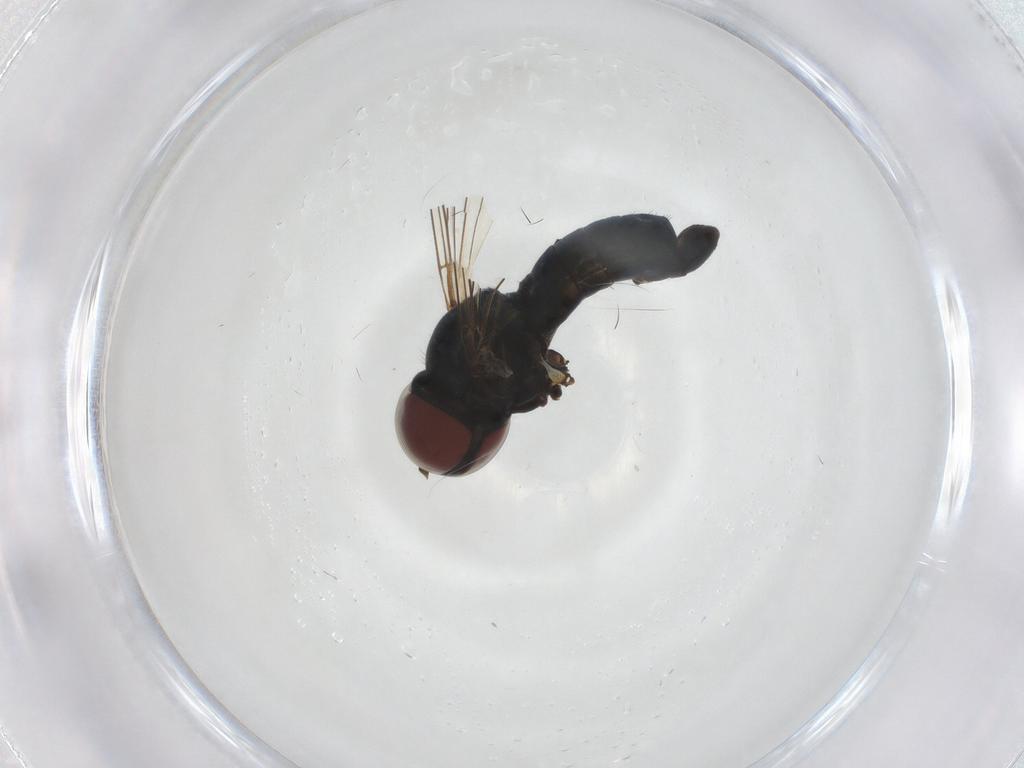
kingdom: Animalia
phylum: Arthropoda
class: Insecta
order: Diptera
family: Pipunculidae
